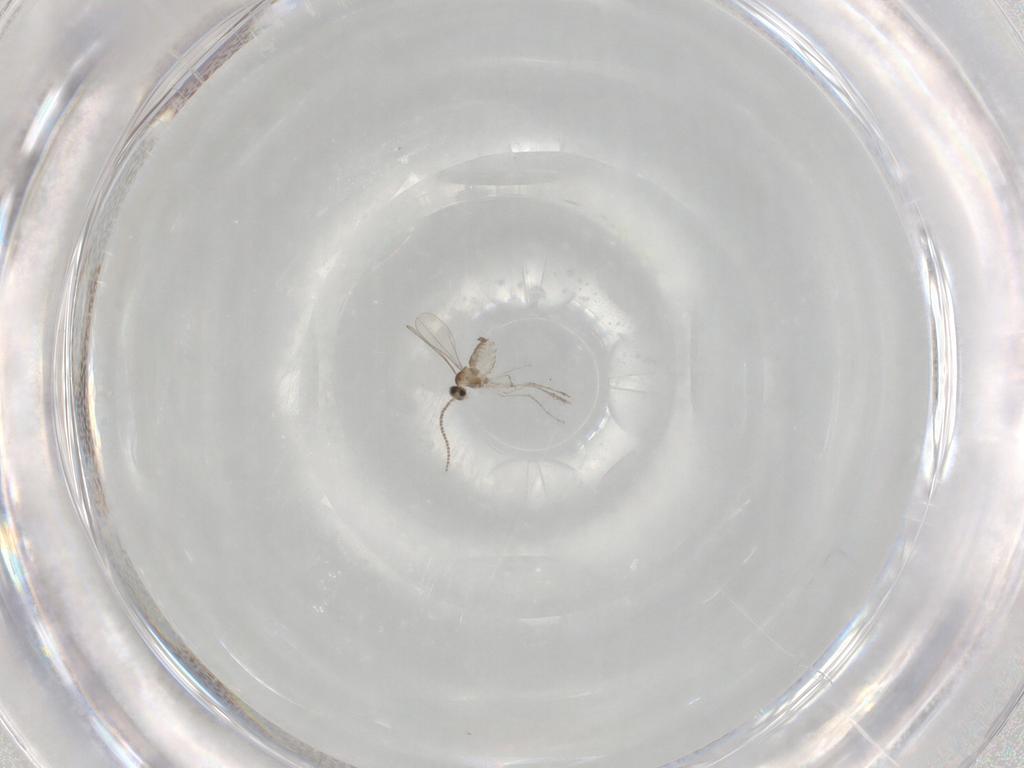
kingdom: Animalia
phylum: Arthropoda
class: Insecta
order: Diptera
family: Cecidomyiidae
